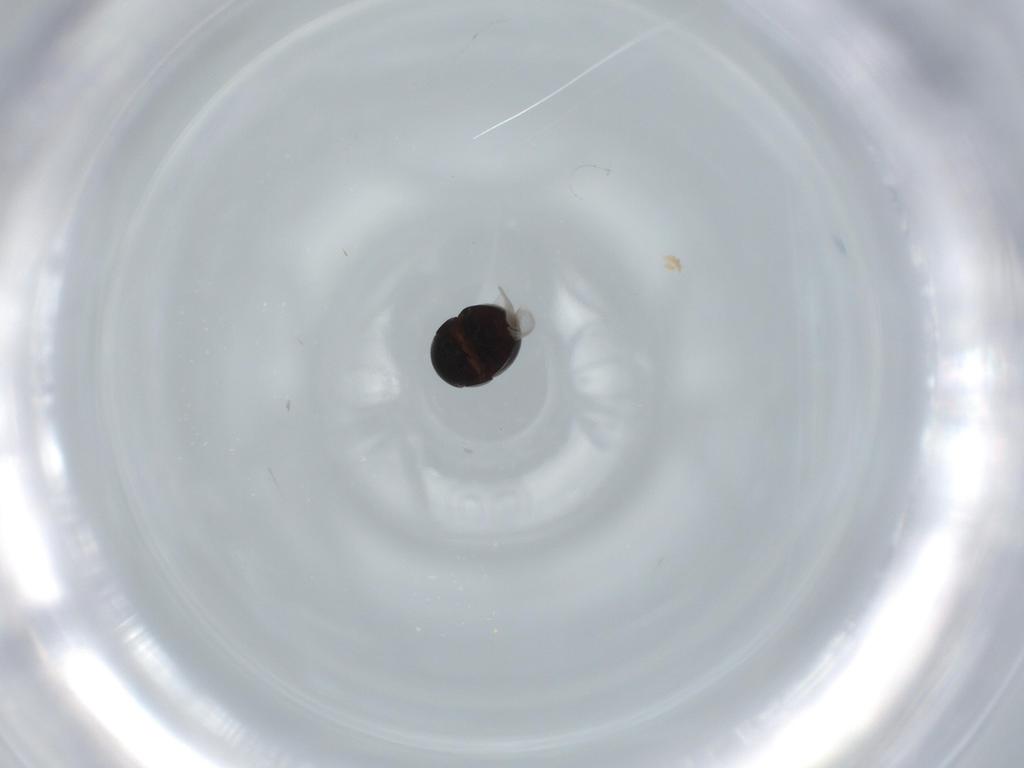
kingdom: Animalia
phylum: Arthropoda
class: Insecta
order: Coleoptera
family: Cybocephalidae
